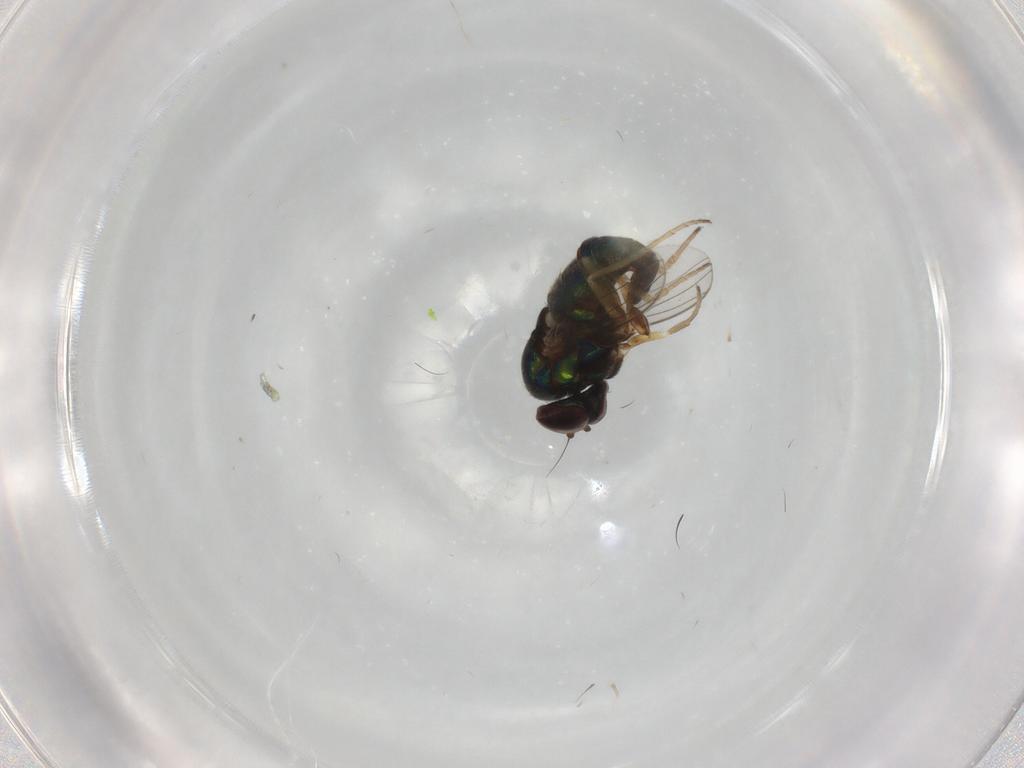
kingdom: Animalia
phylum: Arthropoda
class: Insecta
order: Diptera
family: Dolichopodidae
